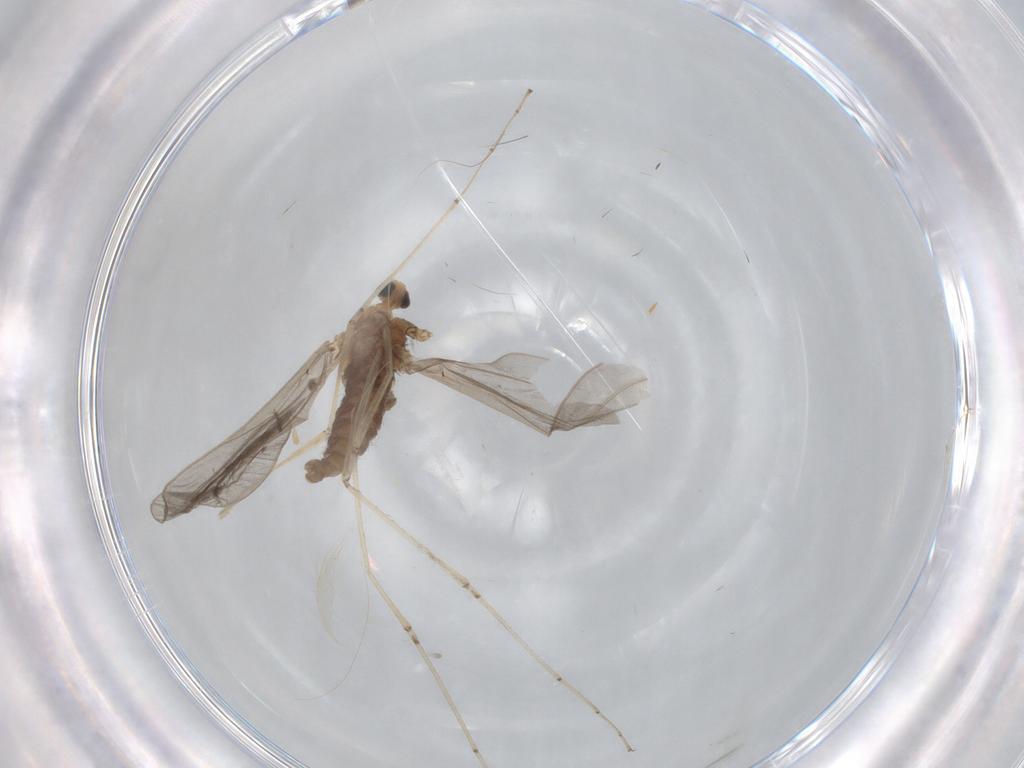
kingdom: Animalia
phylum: Arthropoda
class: Insecta
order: Diptera
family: Cecidomyiidae
